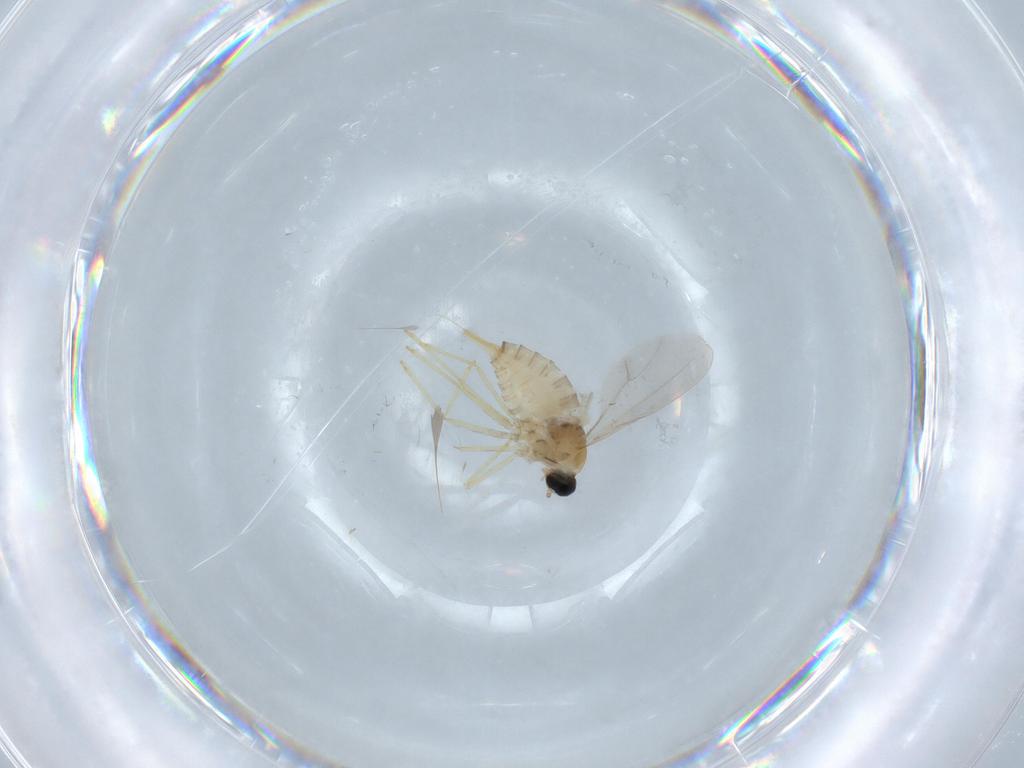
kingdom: Animalia
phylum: Arthropoda
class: Insecta
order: Diptera
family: Cecidomyiidae
